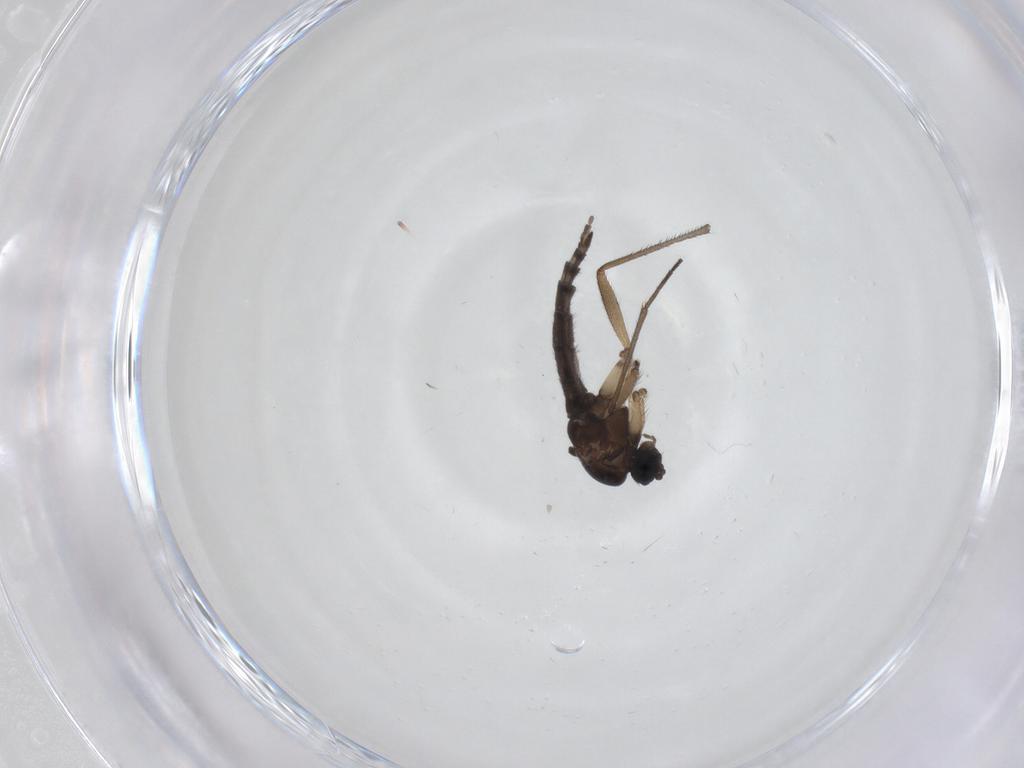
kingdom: Animalia
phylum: Arthropoda
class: Insecta
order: Diptera
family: Sciaridae
